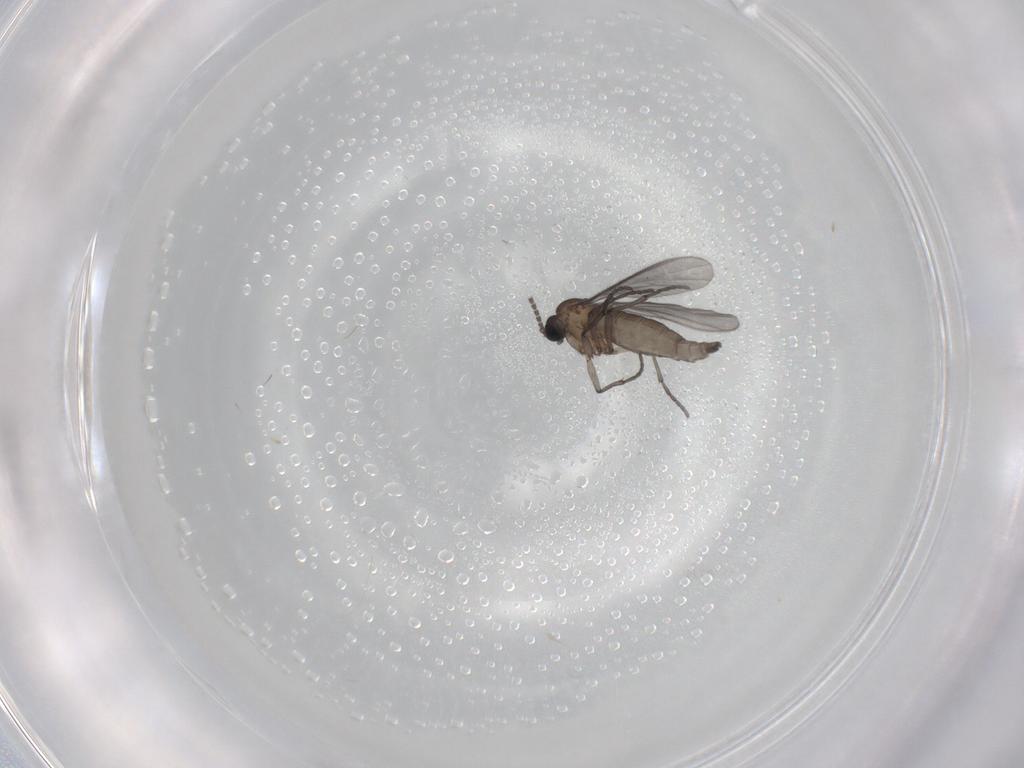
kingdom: Animalia
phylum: Arthropoda
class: Insecta
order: Diptera
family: Sciaridae
